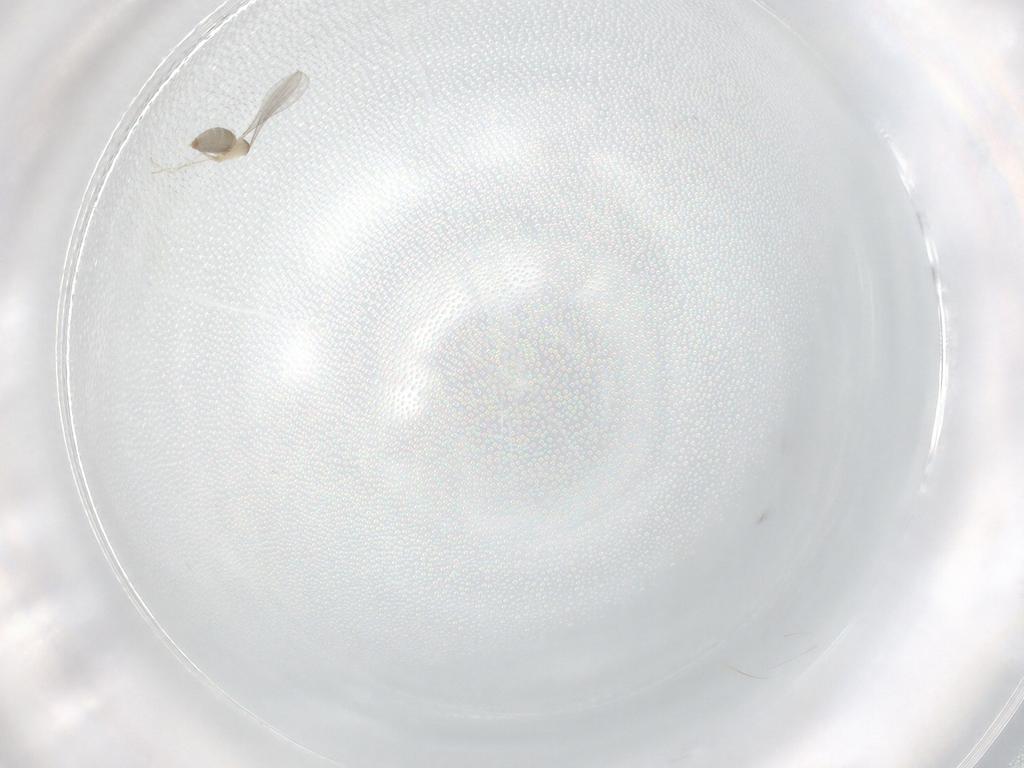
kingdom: Animalia
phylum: Arthropoda
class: Insecta
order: Diptera
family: Cecidomyiidae
